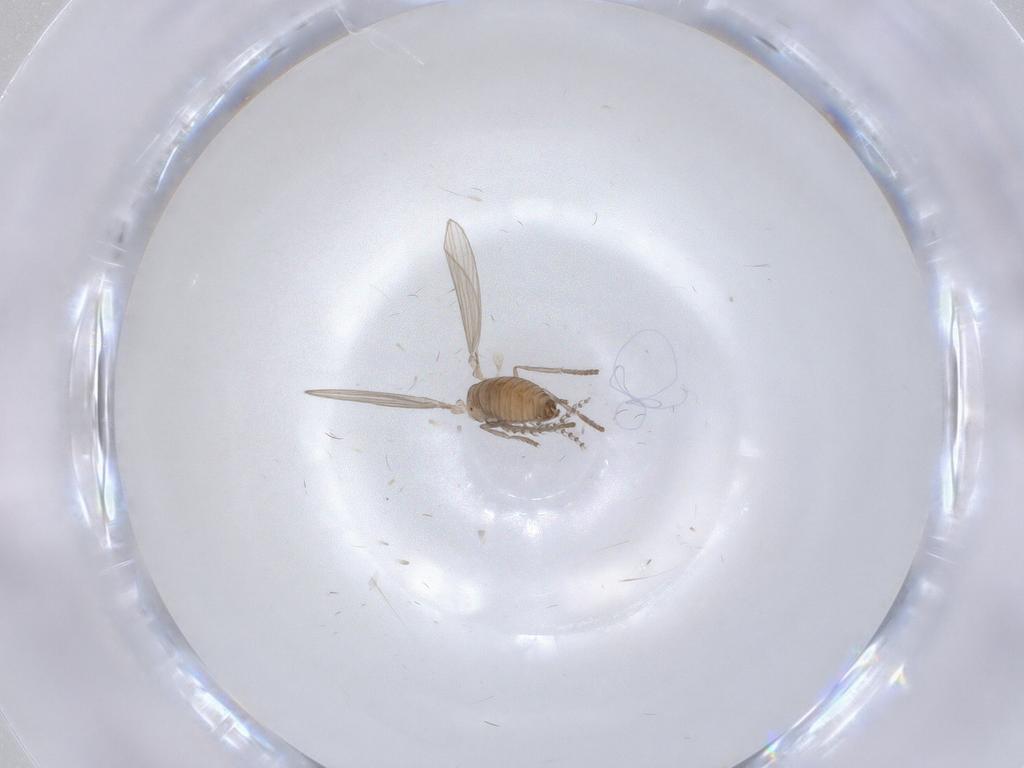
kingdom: Animalia
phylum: Arthropoda
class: Insecta
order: Diptera
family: Psychodidae
